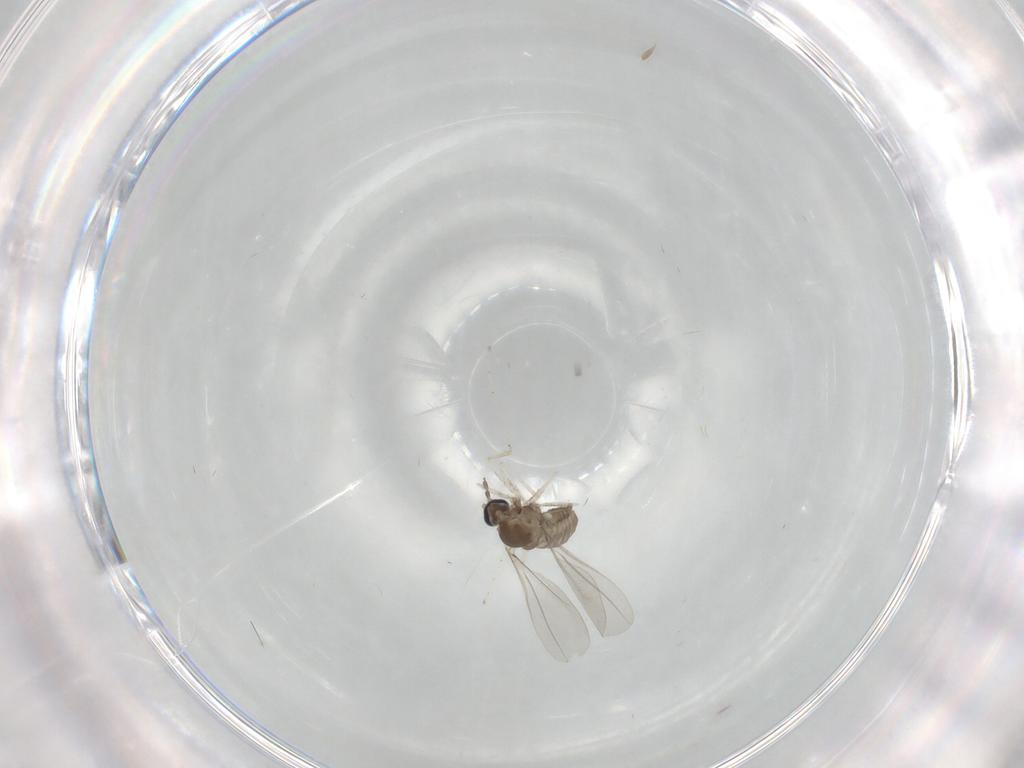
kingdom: Animalia
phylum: Arthropoda
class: Insecta
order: Diptera
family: Cecidomyiidae
